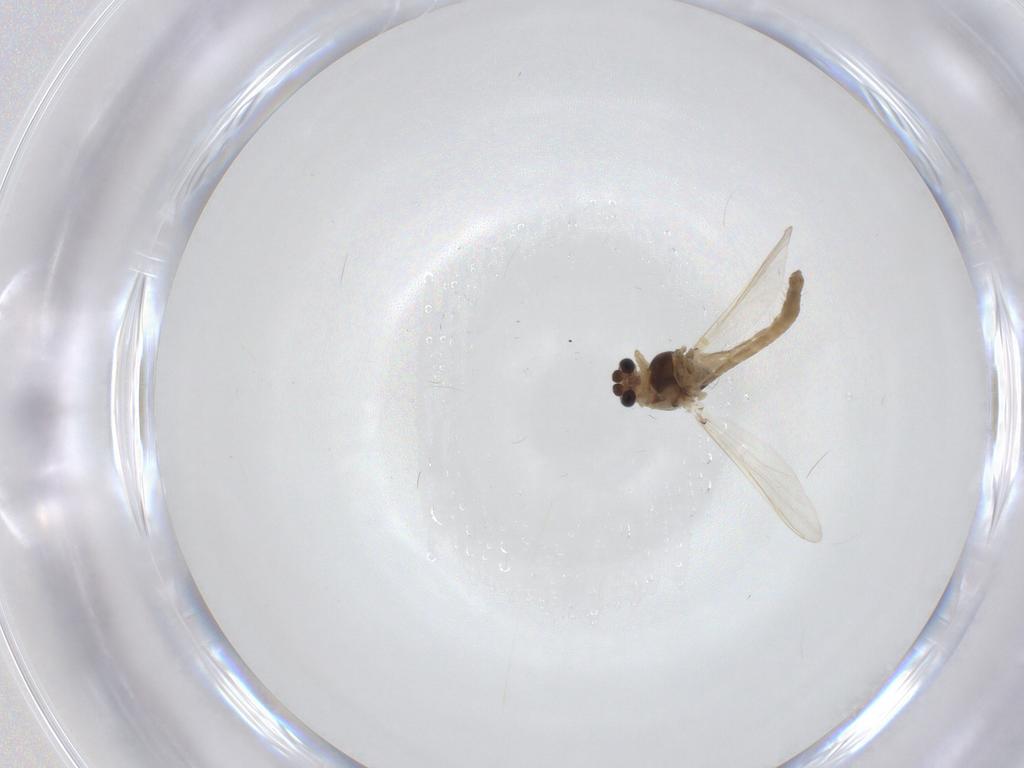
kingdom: Animalia
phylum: Arthropoda
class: Insecta
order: Diptera
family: Chironomidae
